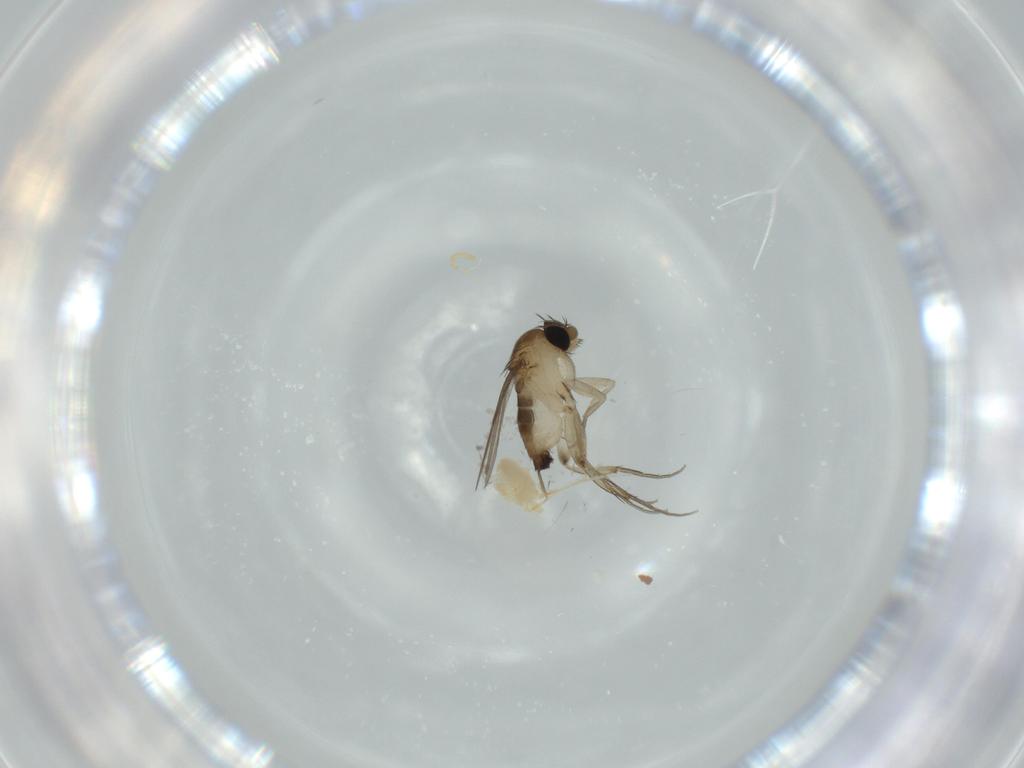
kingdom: Animalia
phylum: Arthropoda
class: Insecta
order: Diptera
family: Phoridae
